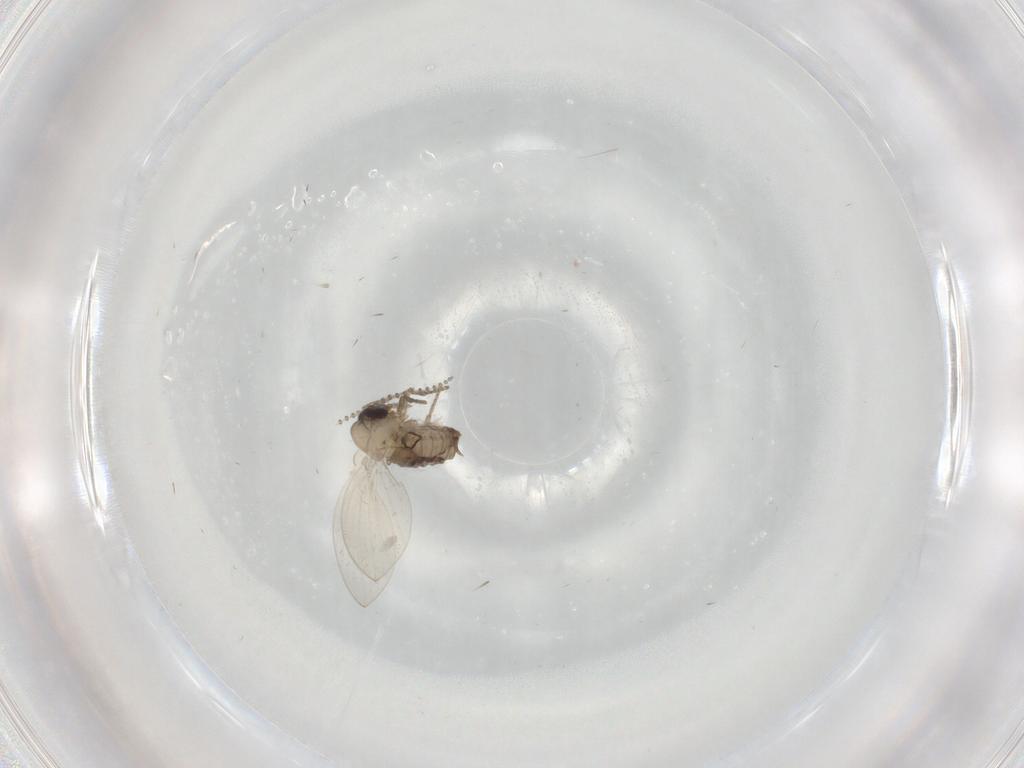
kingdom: Animalia
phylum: Arthropoda
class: Insecta
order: Diptera
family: Psychodidae
